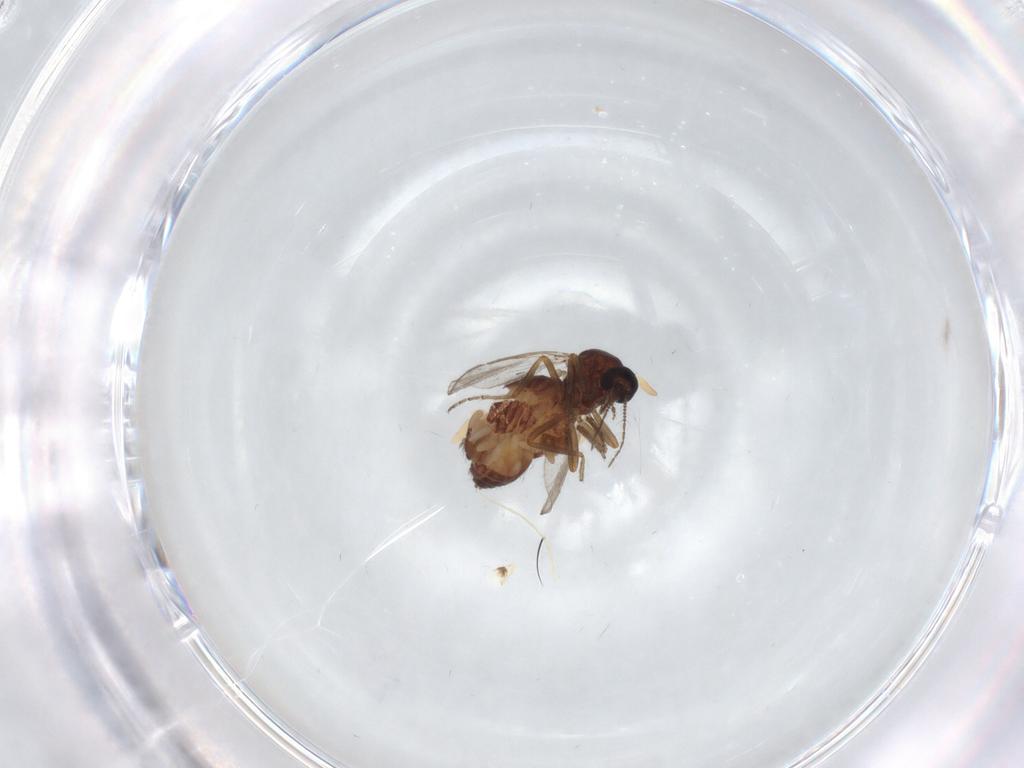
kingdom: Animalia
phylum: Arthropoda
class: Insecta
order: Diptera
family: Ceratopogonidae
